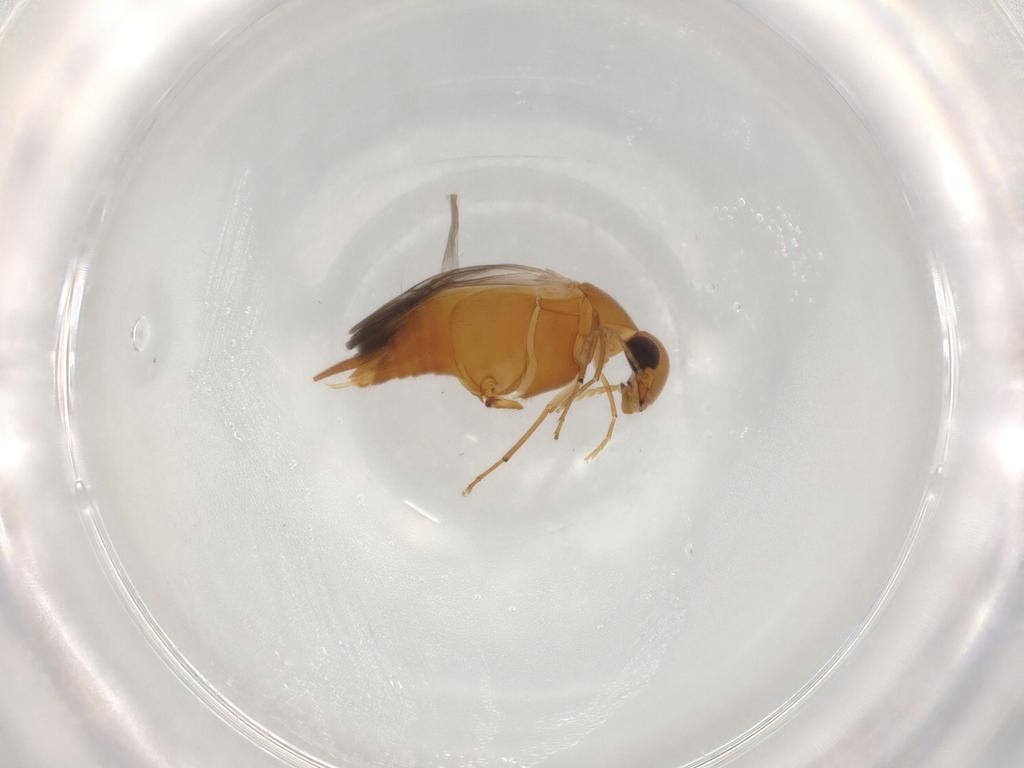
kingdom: Animalia
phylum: Arthropoda
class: Insecta
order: Coleoptera
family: Mordellidae
